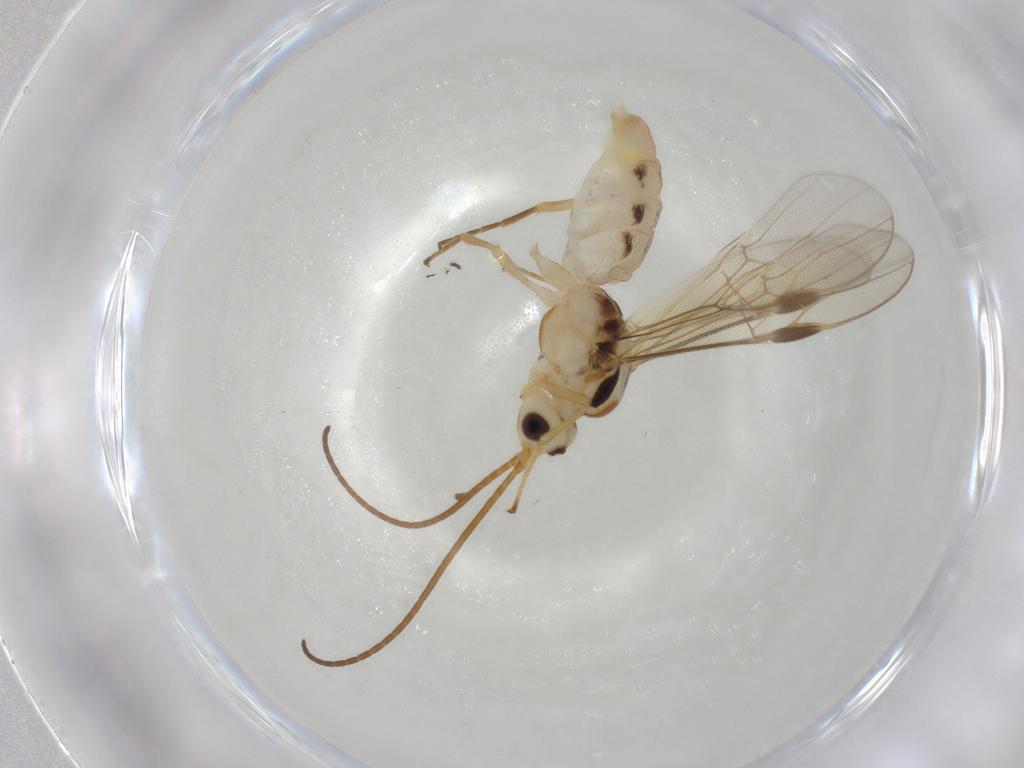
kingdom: Animalia
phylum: Arthropoda
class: Insecta
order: Hymenoptera
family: Braconidae
